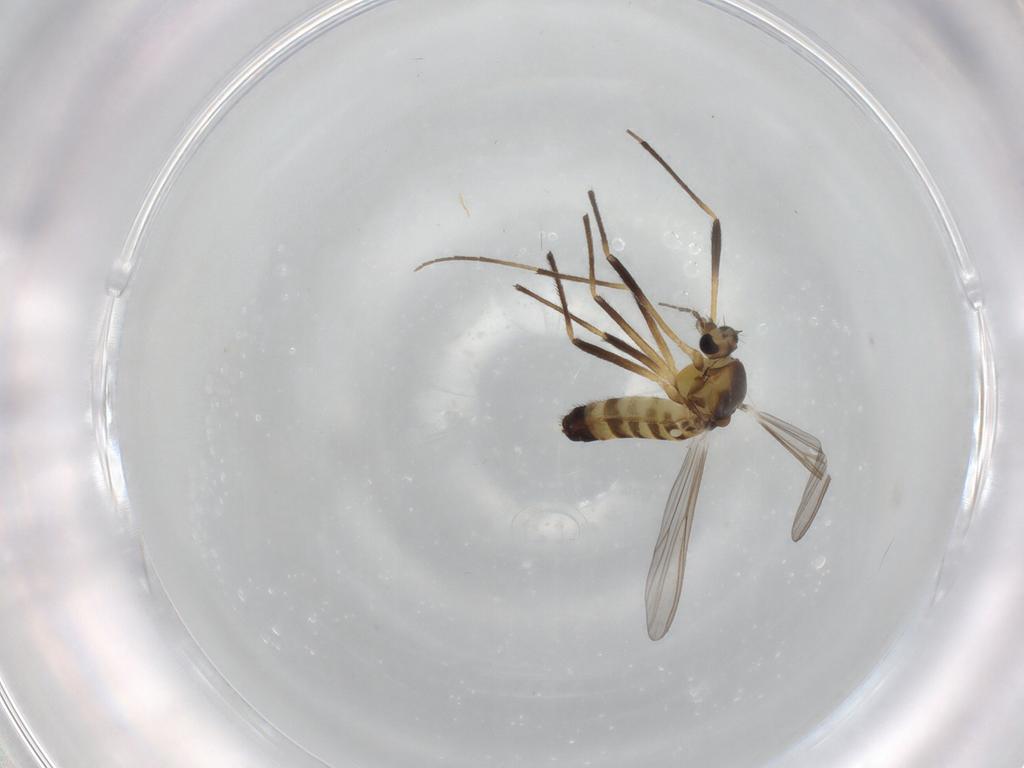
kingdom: Animalia
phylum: Arthropoda
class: Insecta
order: Diptera
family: Chironomidae
